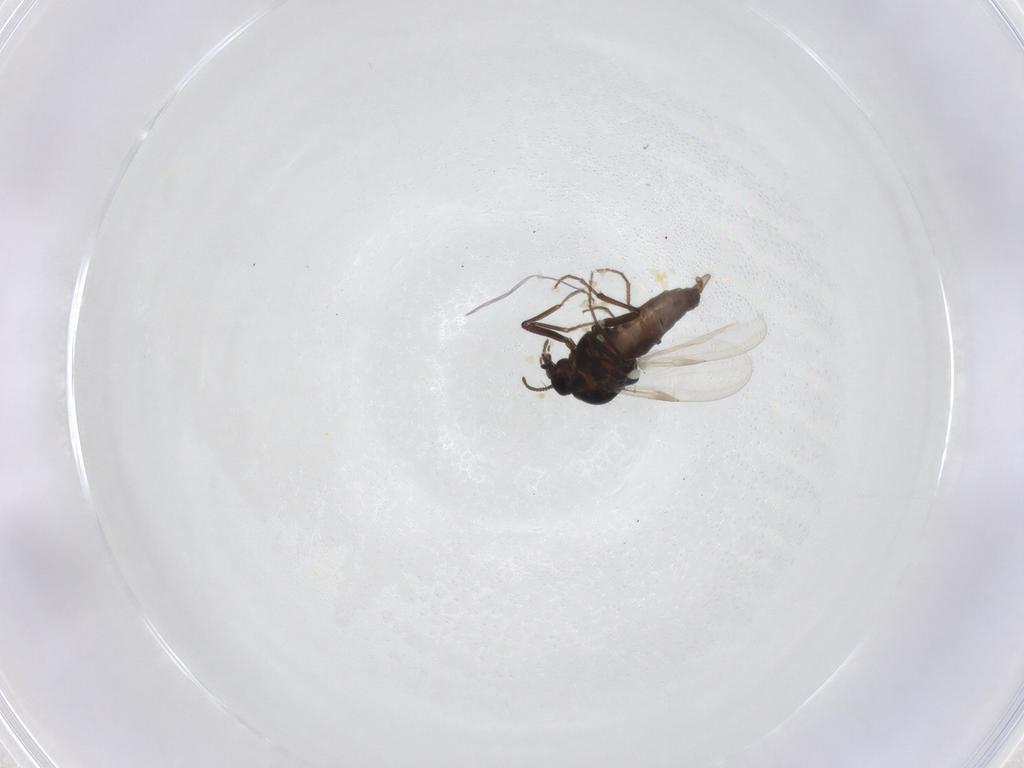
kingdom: Animalia
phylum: Arthropoda
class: Insecta
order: Diptera
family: Ceratopogonidae
